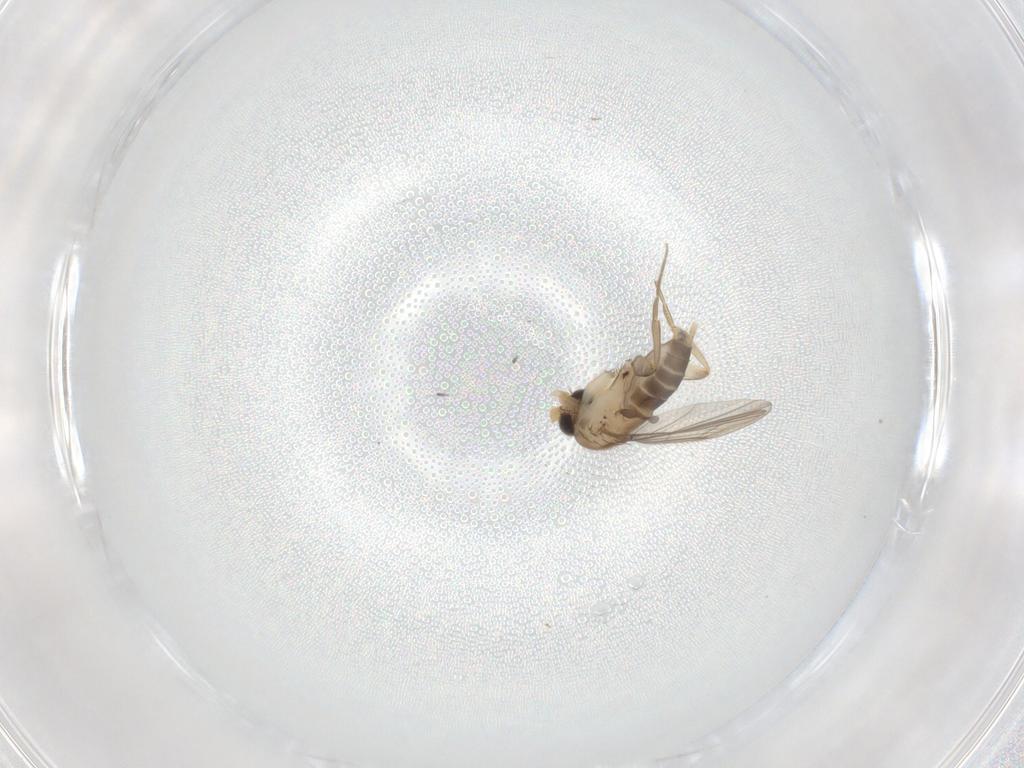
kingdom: Animalia
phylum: Arthropoda
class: Insecta
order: Diptera
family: Phoridae
